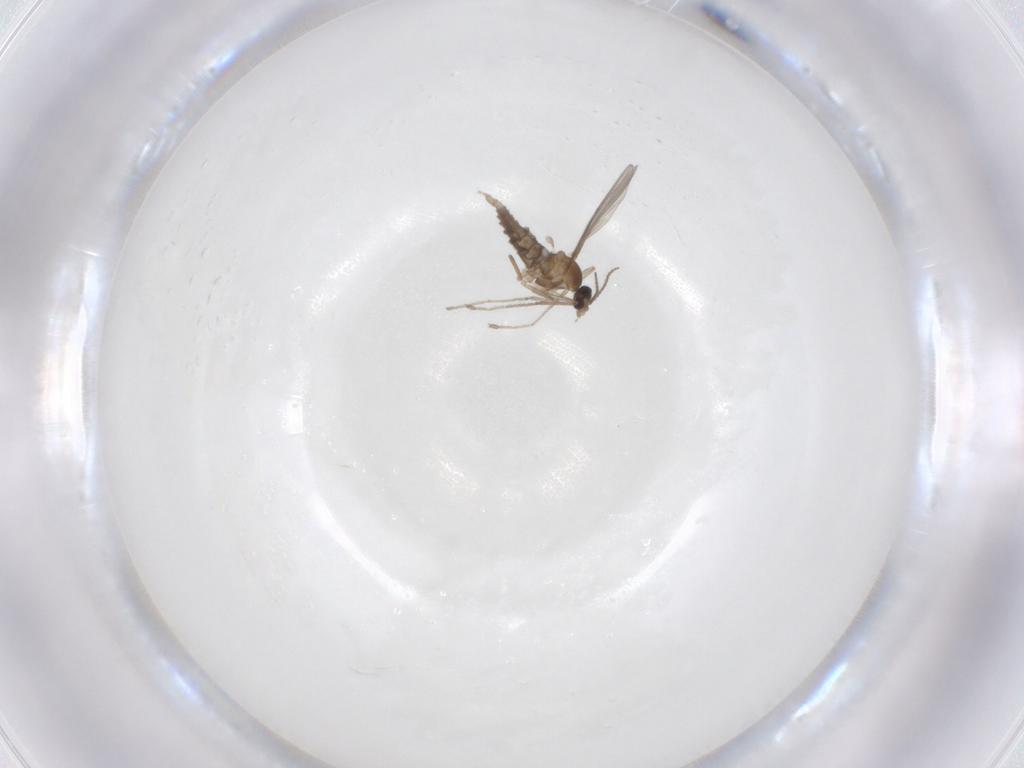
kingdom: Animalia
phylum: Arthropoda
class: Insecta
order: Diptera
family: Cecidomyiidae
